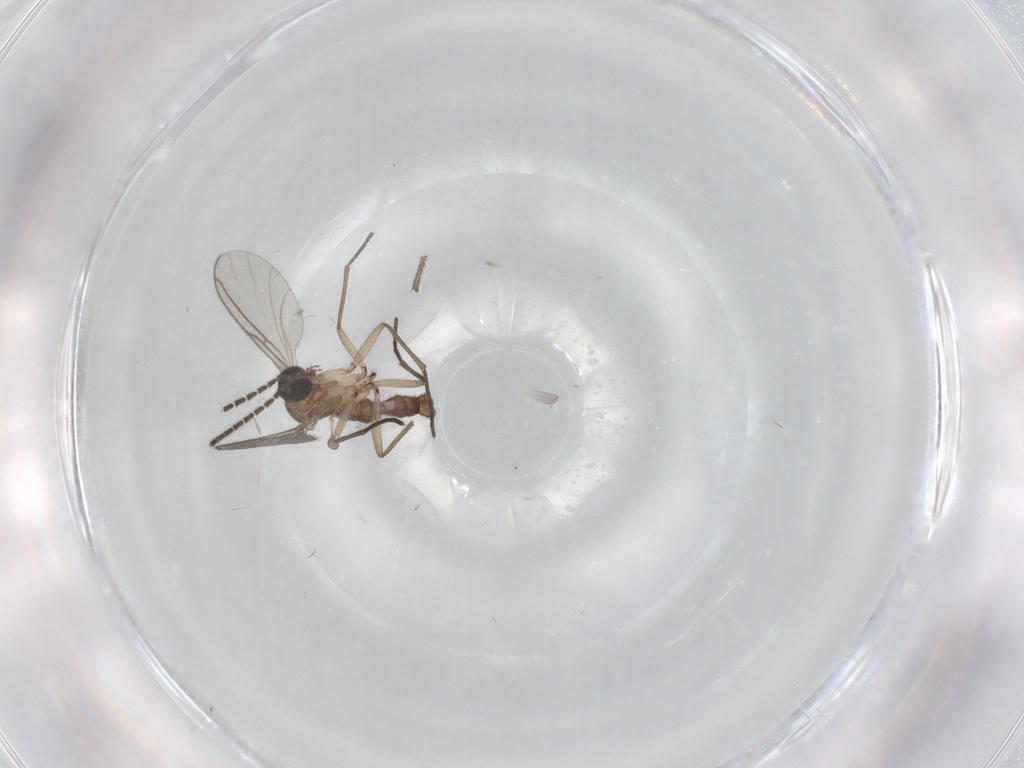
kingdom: Animalia
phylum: Arthropoda
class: Insecta
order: Diptera
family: Sciaridae
